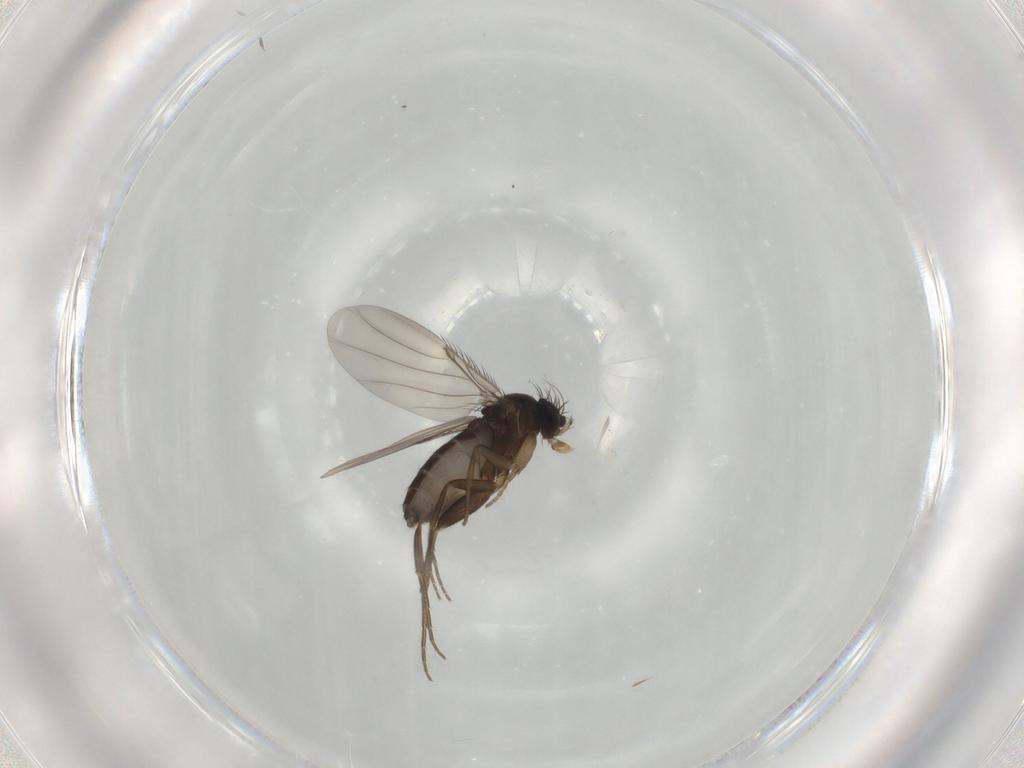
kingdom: Animalia
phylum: Arthropoda
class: Insecta
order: Diptera
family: Phoridae
